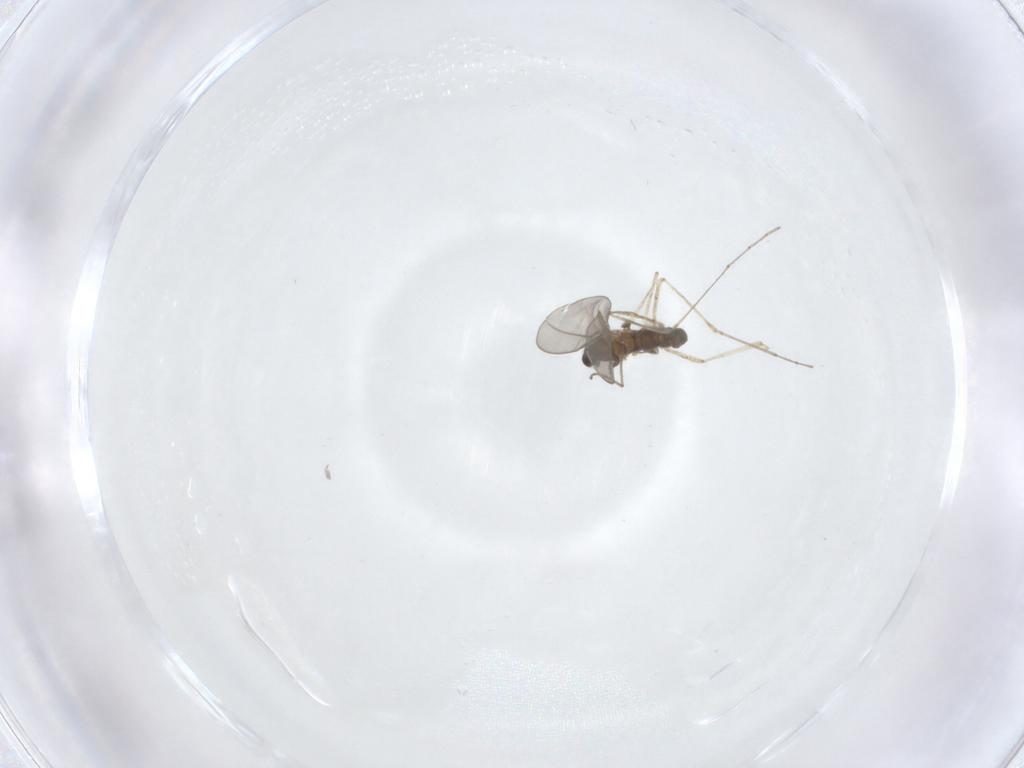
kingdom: Animalia
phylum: Arthropoda
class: Insecta
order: Diptera
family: Cecidomyiidae
